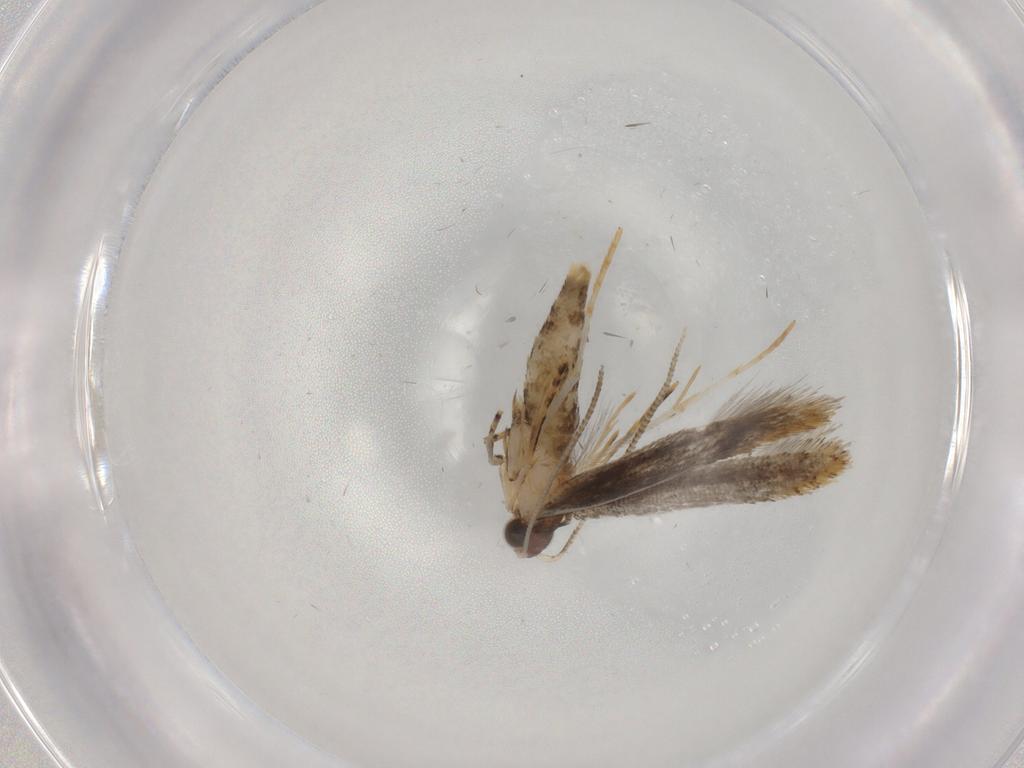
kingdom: Animalia
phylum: Arthropoda
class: Insecta
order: Lepidoptera
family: Tineidae
